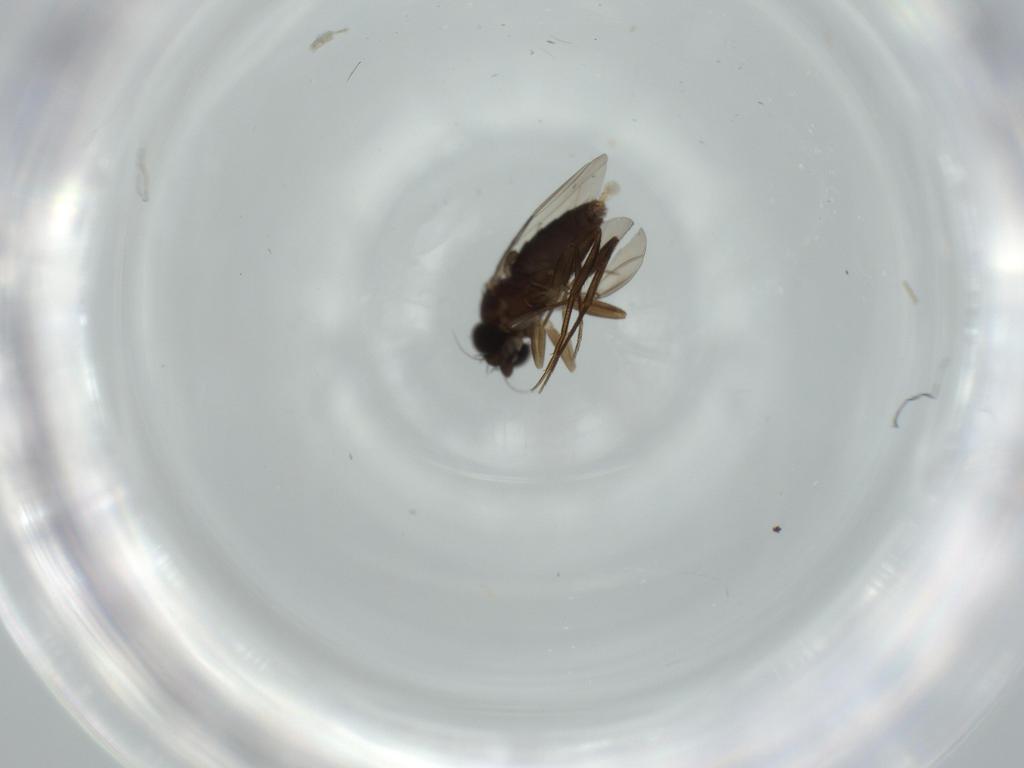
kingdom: Animalia
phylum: Arthropoda
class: Insecta
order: Diptera
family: Phoridae
